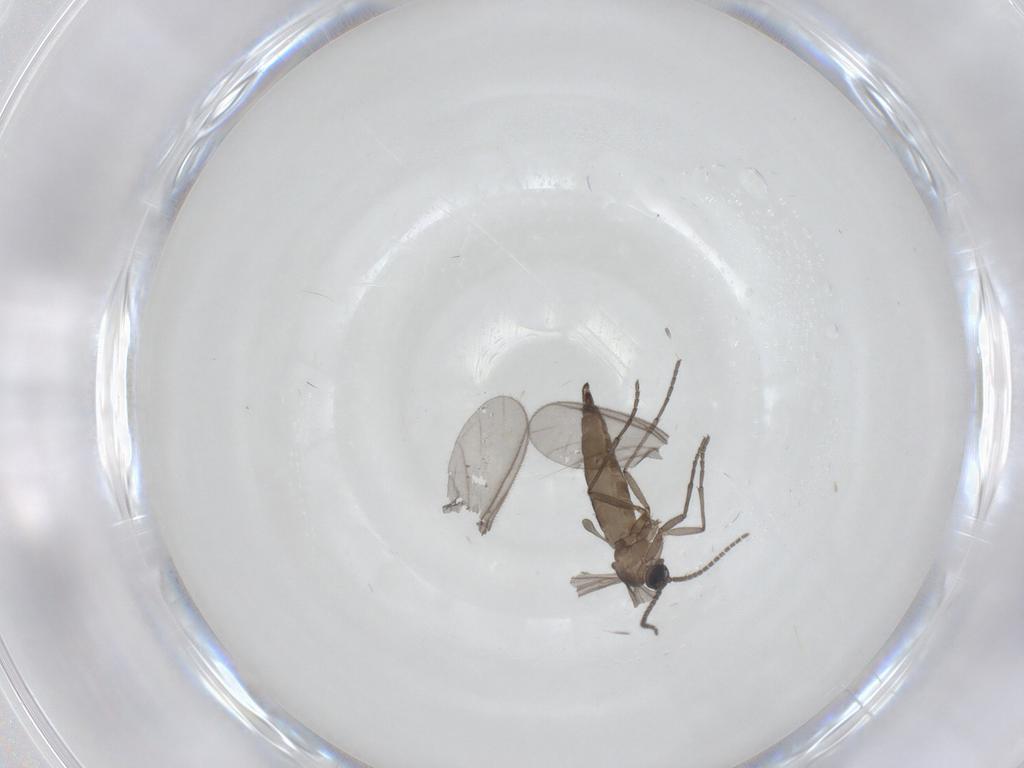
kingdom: Animalia
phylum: Arthropoda
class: Insecta
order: Diptera
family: Sciaridae
